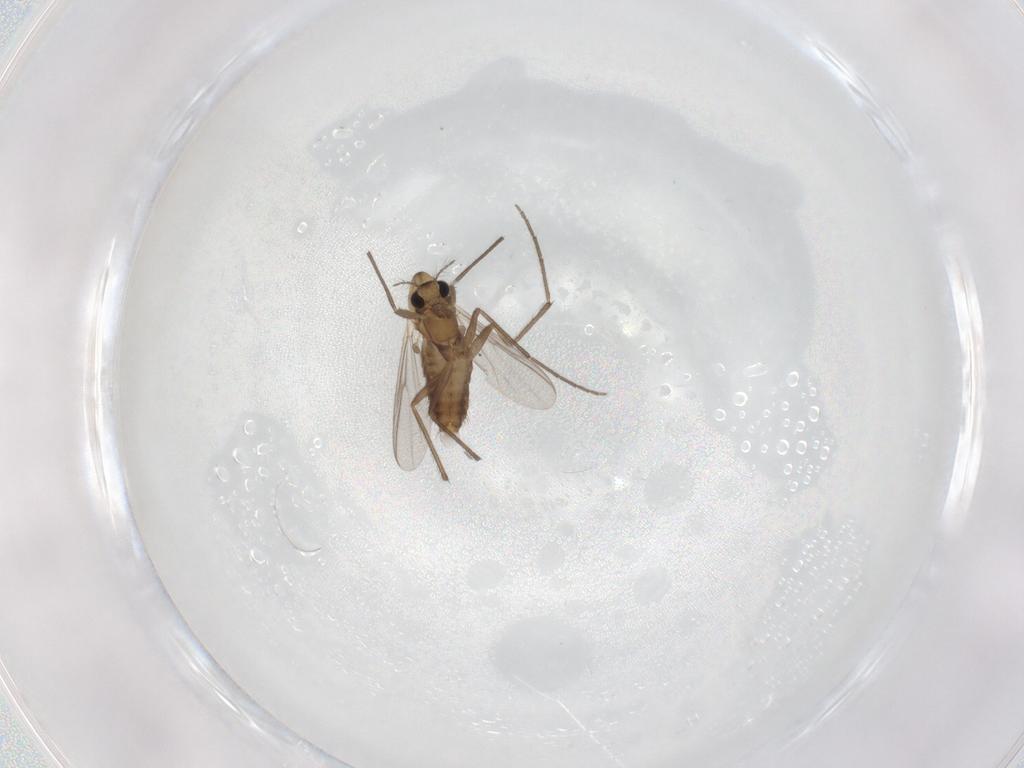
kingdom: Animalia
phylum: Arthropoda
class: Insecta
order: Diptera
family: Chironomidae
